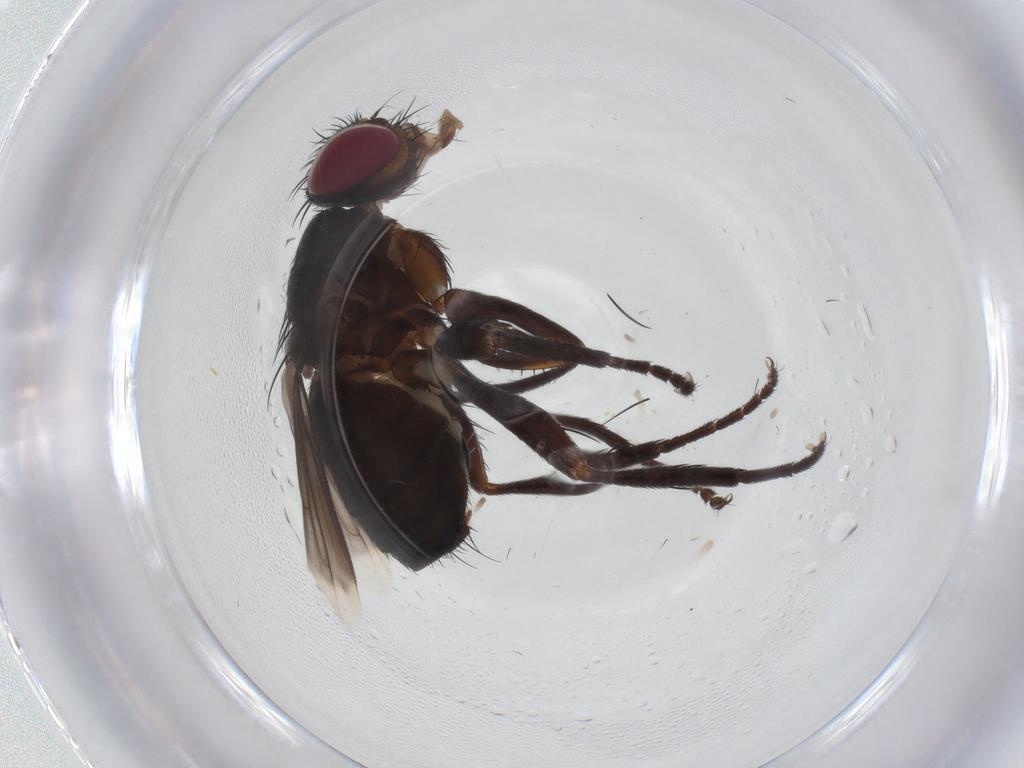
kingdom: Animalia
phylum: Arthropoda
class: Insecta
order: Diptera
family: Tachinidae
